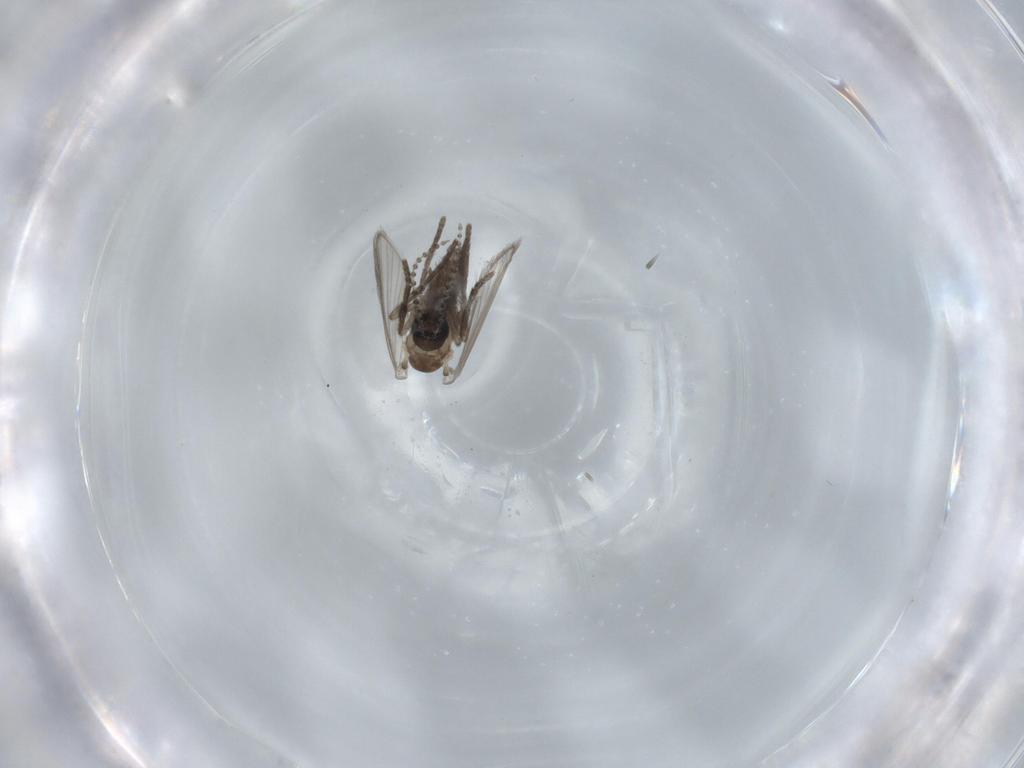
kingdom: Animalia
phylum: Arthropoda
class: Insecta
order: Diptera
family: Psychodidae
